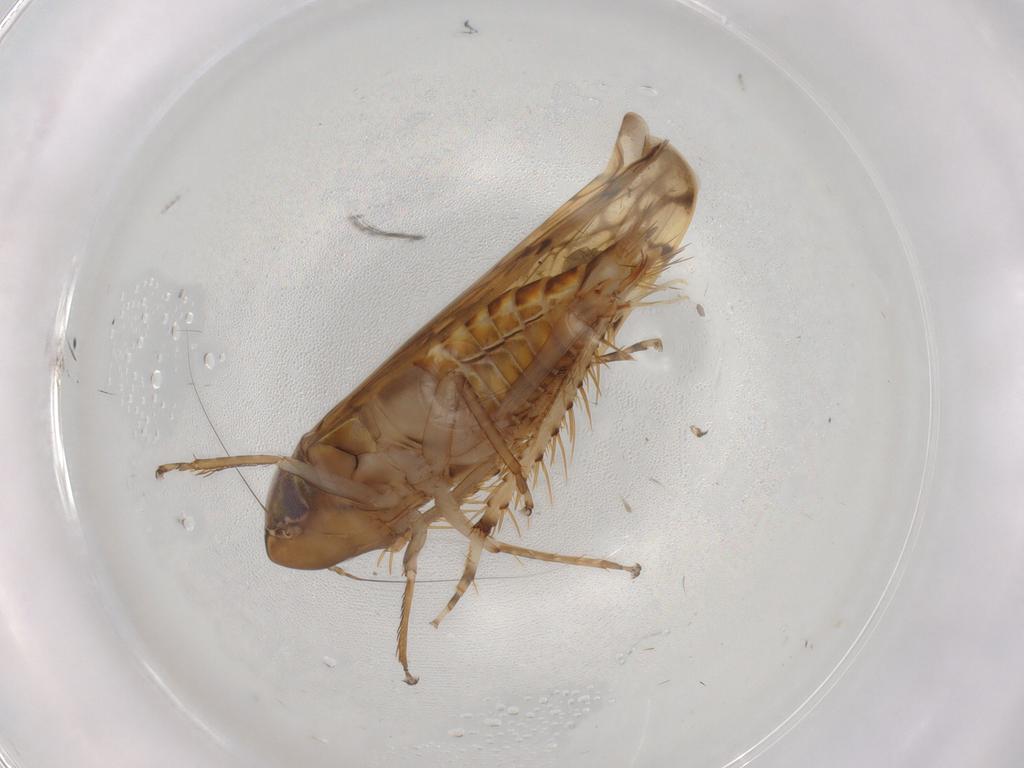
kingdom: Animalia
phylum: Arthropoda
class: Insecta
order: Hemiptera
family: Cicadellidae
